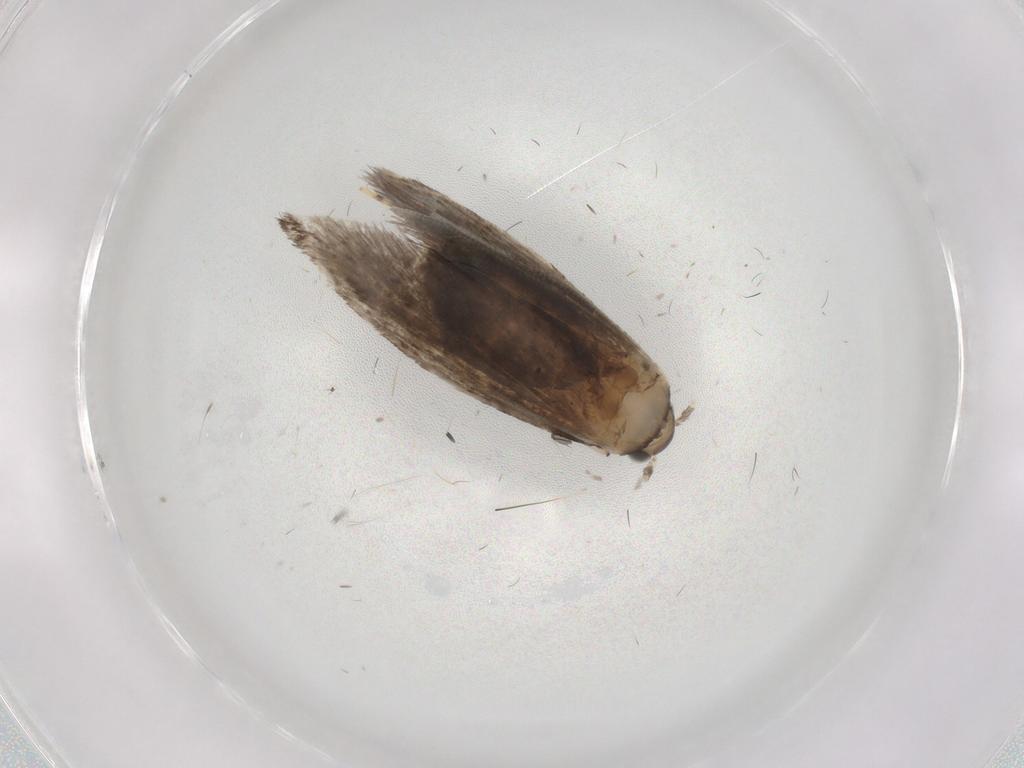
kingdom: Animalia
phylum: Arthropoda
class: Insecta
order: Lepidoptera
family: Tineidae
